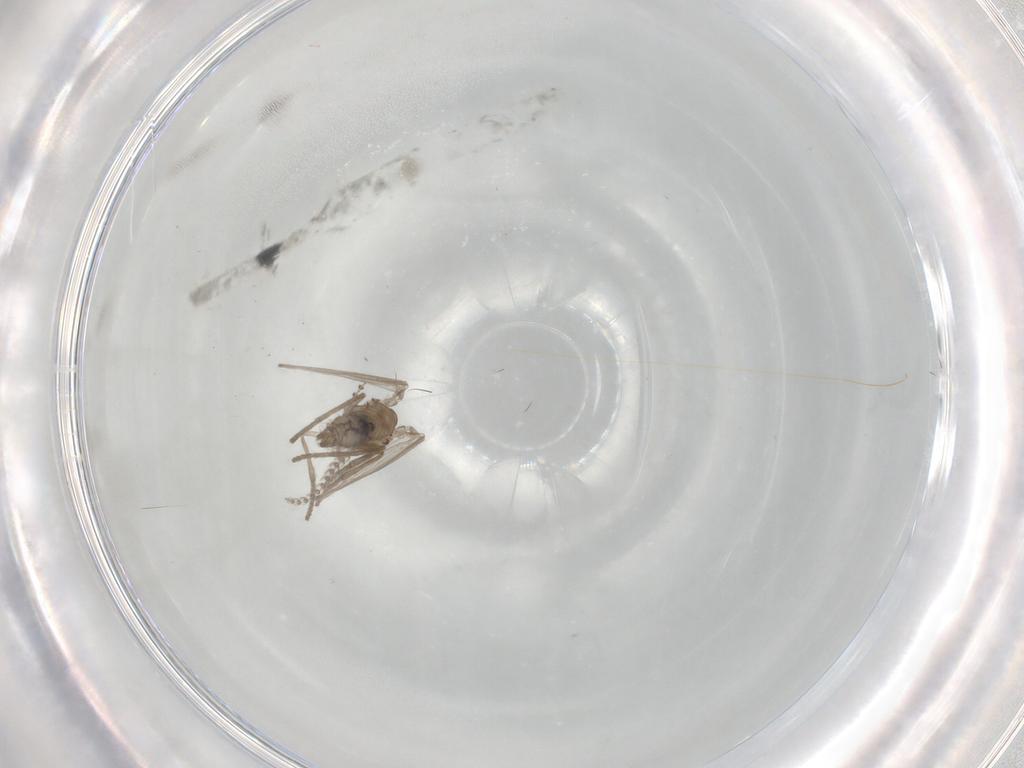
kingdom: Animalia
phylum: Arthropoda
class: Insecta
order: Diptera
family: Psychodidae
